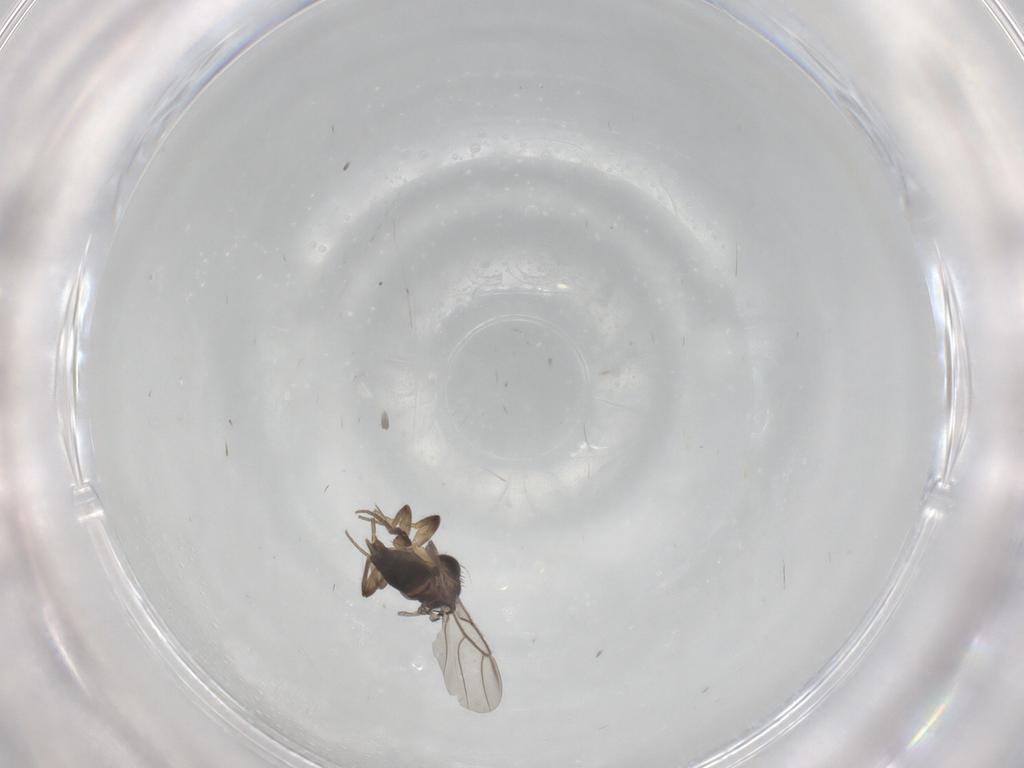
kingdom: Animalia
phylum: Arthropoda
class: Insecta
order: Diptera
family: Phoridae
